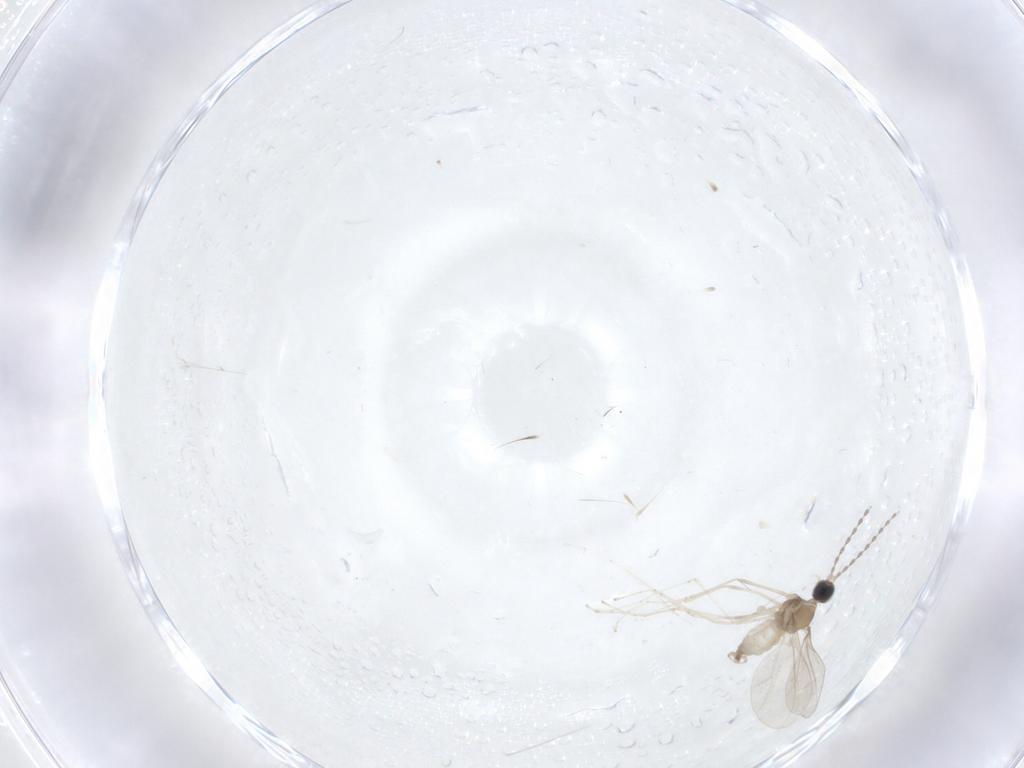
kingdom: Animalia
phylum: Arthropoda
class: Insecta
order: Diptera
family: Cecidomyiidae
